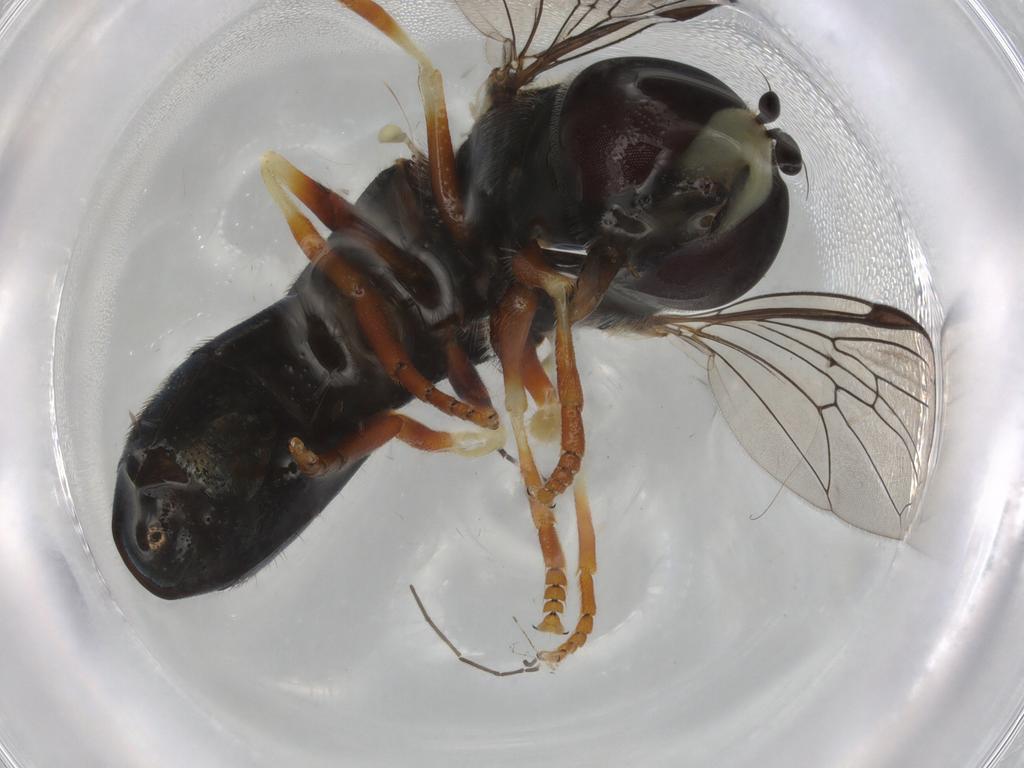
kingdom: Animalia
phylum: Arthropoda
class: Insecta
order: Diptera
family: Syrphidae
